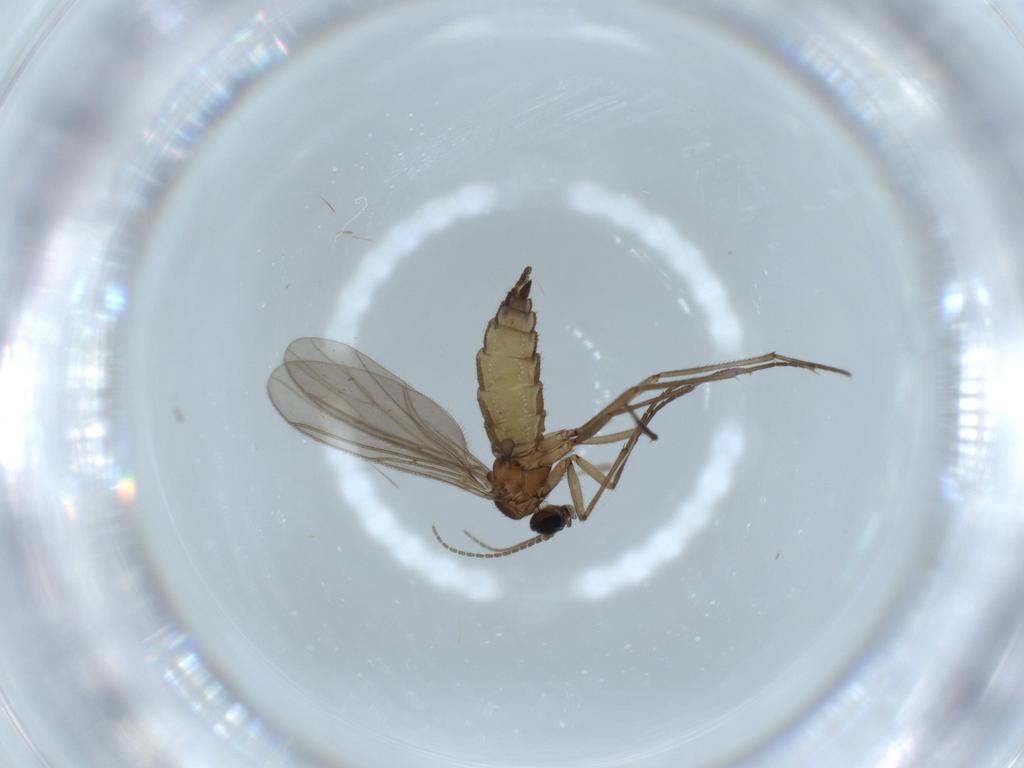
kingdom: Animalia
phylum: Arthropoda
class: Insecta
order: Diptera
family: Sciaridae
